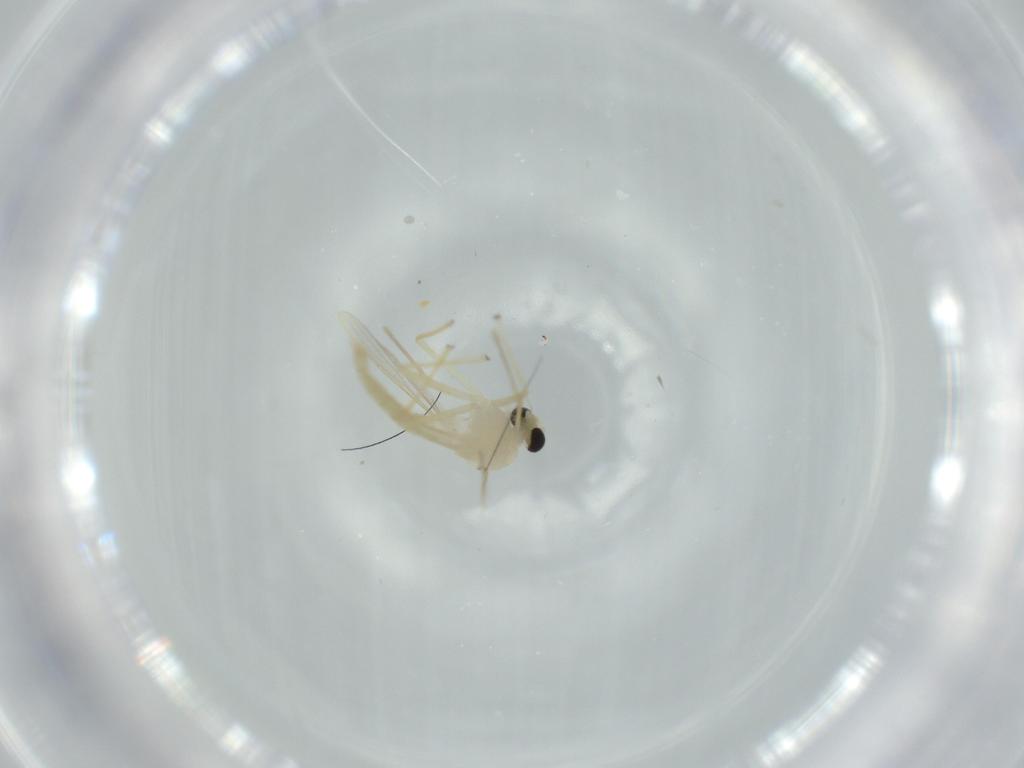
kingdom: Animalia
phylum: Arthropoda
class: Insecta
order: Diptera
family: Chironomidae
